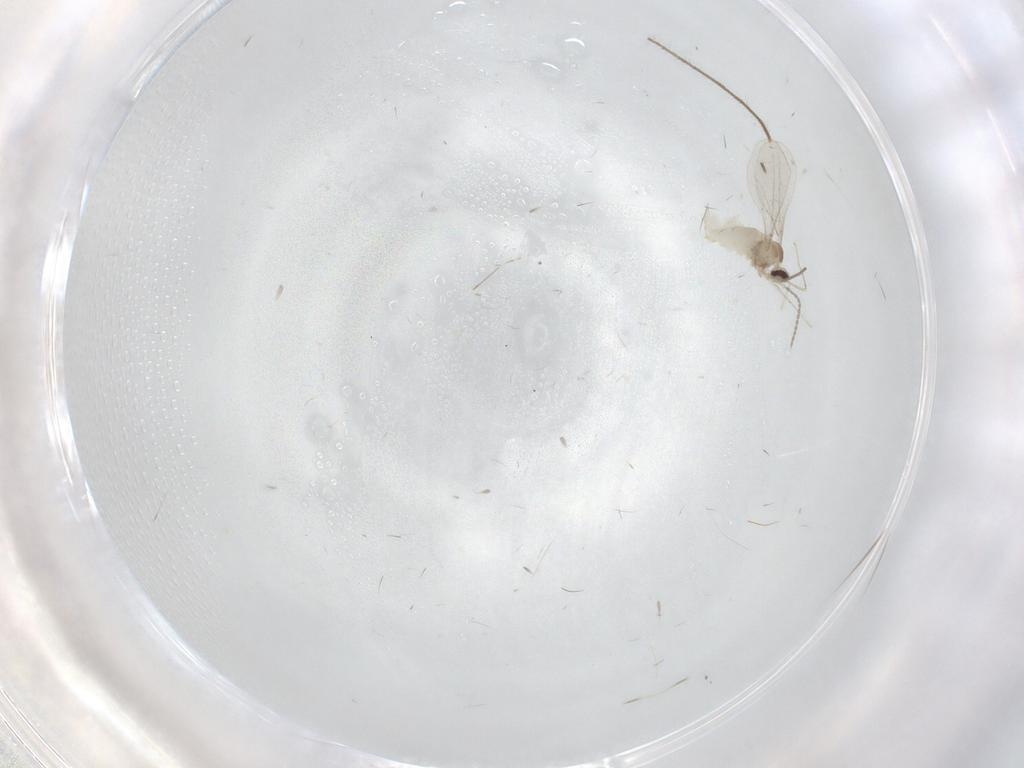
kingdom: Animalia
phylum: Arthropoda
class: Insecta
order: Diptera
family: Cecidomyiidae
